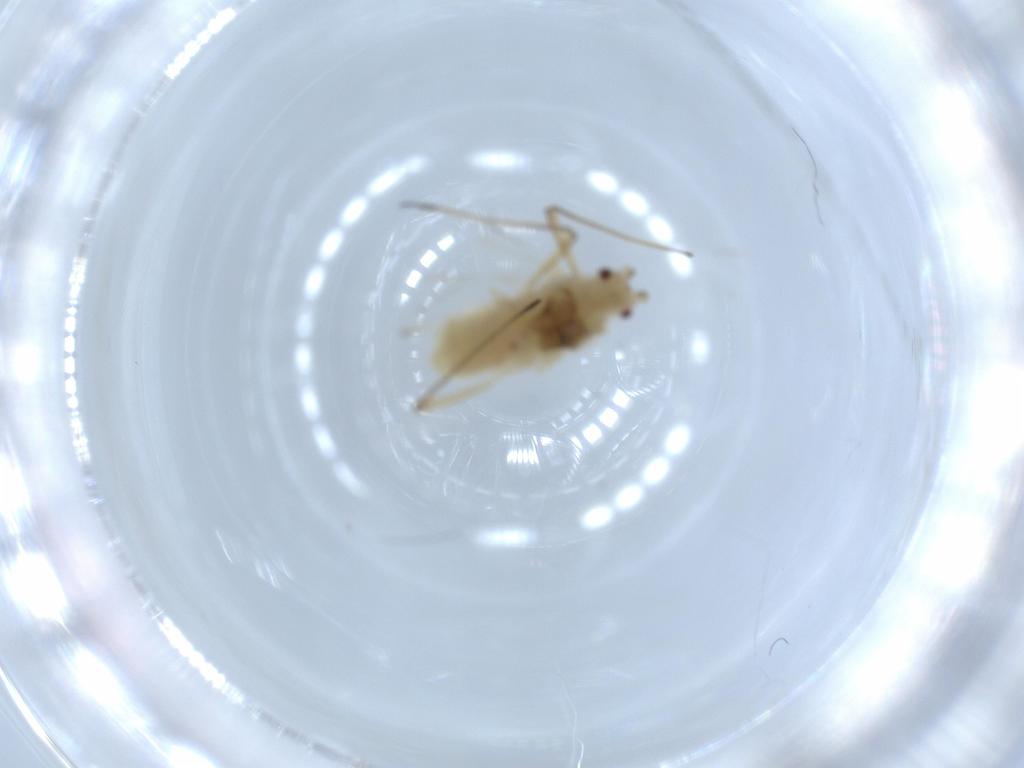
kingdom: Animalia
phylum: Arthropoda
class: Insecta
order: Hemiptera
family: Aphididae
